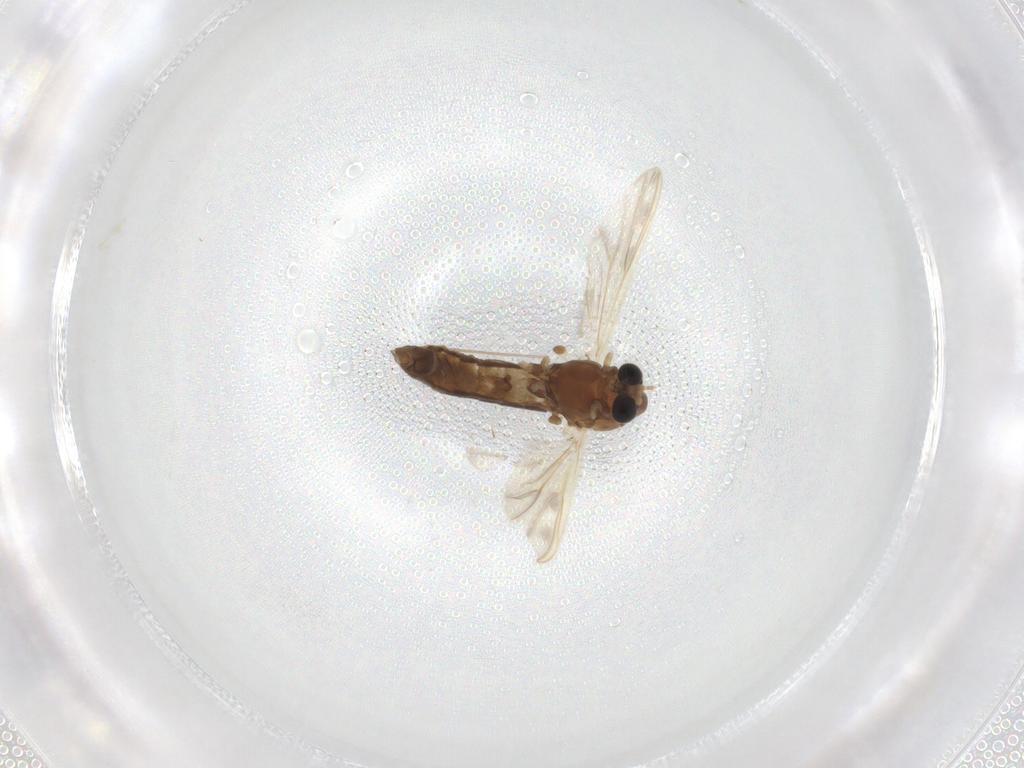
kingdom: Animalia
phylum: Arthropoda
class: Insecta
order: Diptera
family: Chironomidae
